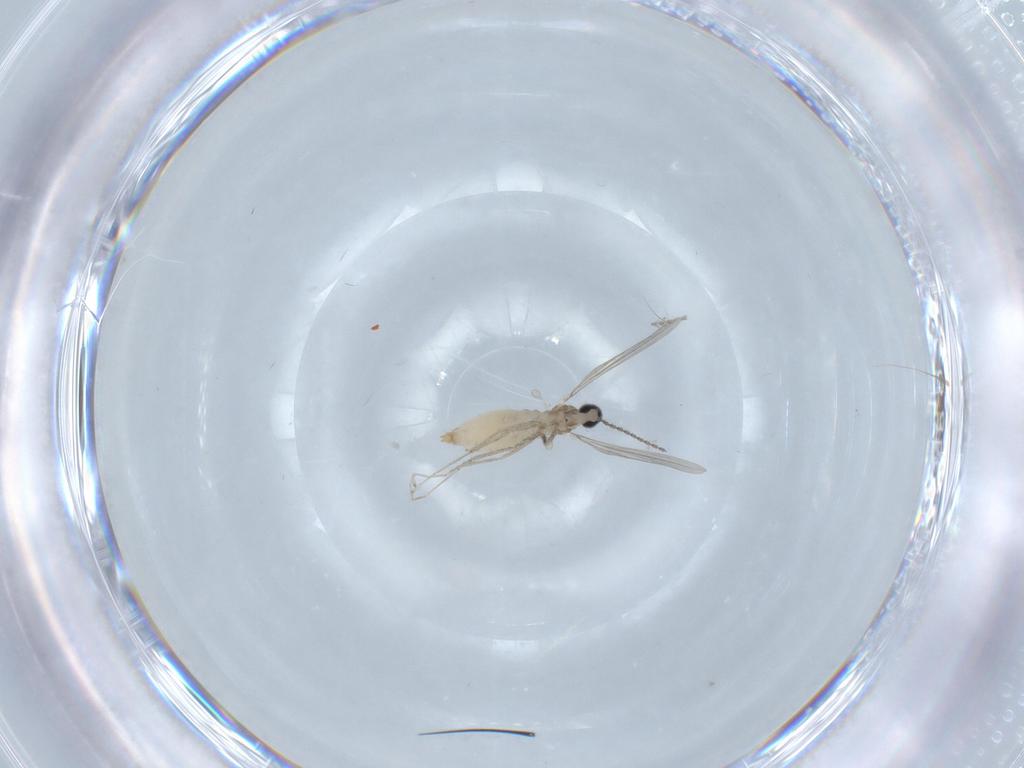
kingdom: Animalia
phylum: Arthropoda
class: Insecta
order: Diptera
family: Cecidomyiidae
